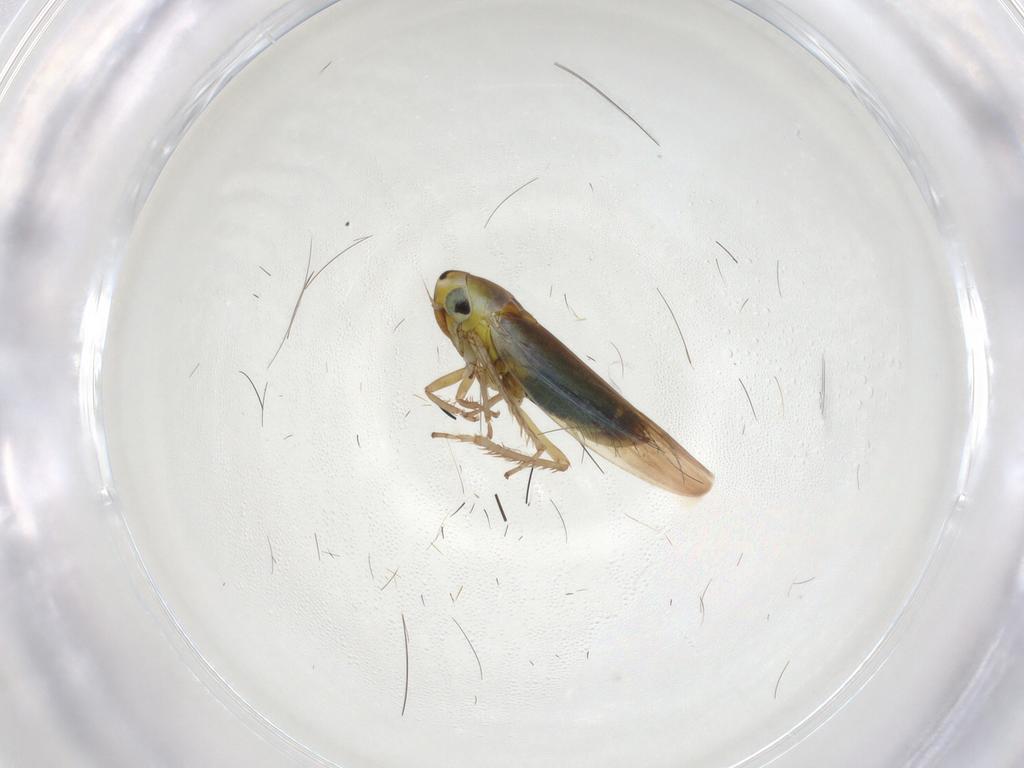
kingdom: Animalia
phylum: Arthropoda
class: Insecta
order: Hemiptera
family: Cicadellidae
